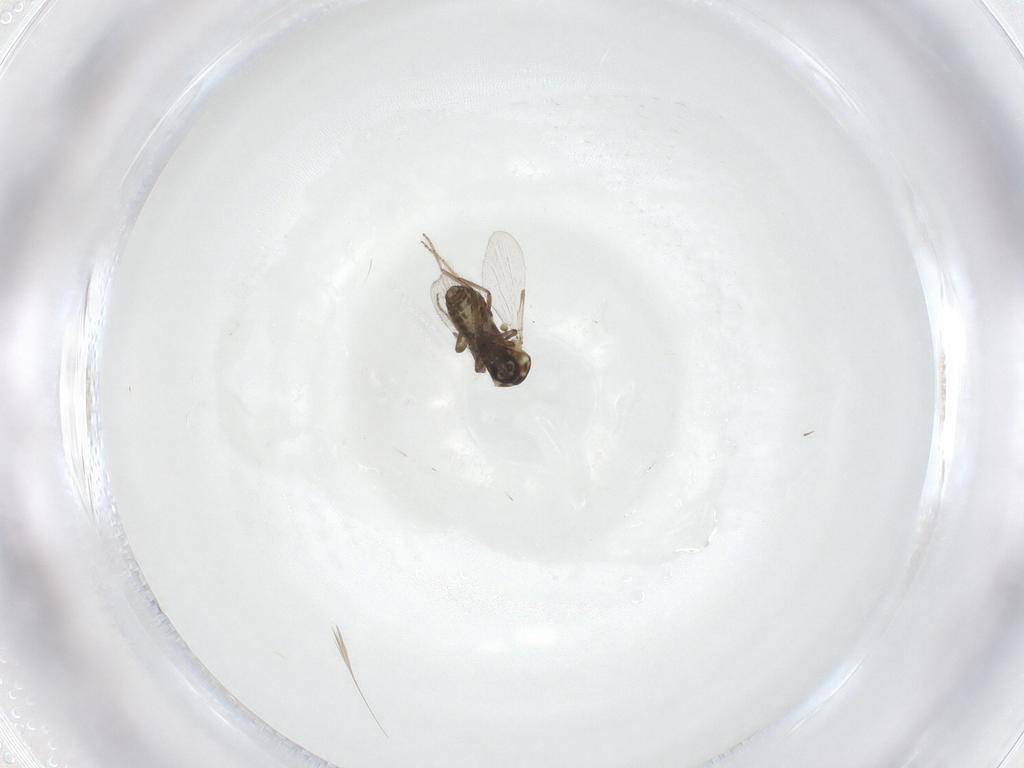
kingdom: Animalia
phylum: Arthropoda
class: Insecta
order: Diptera
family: Ceratopogonidae
